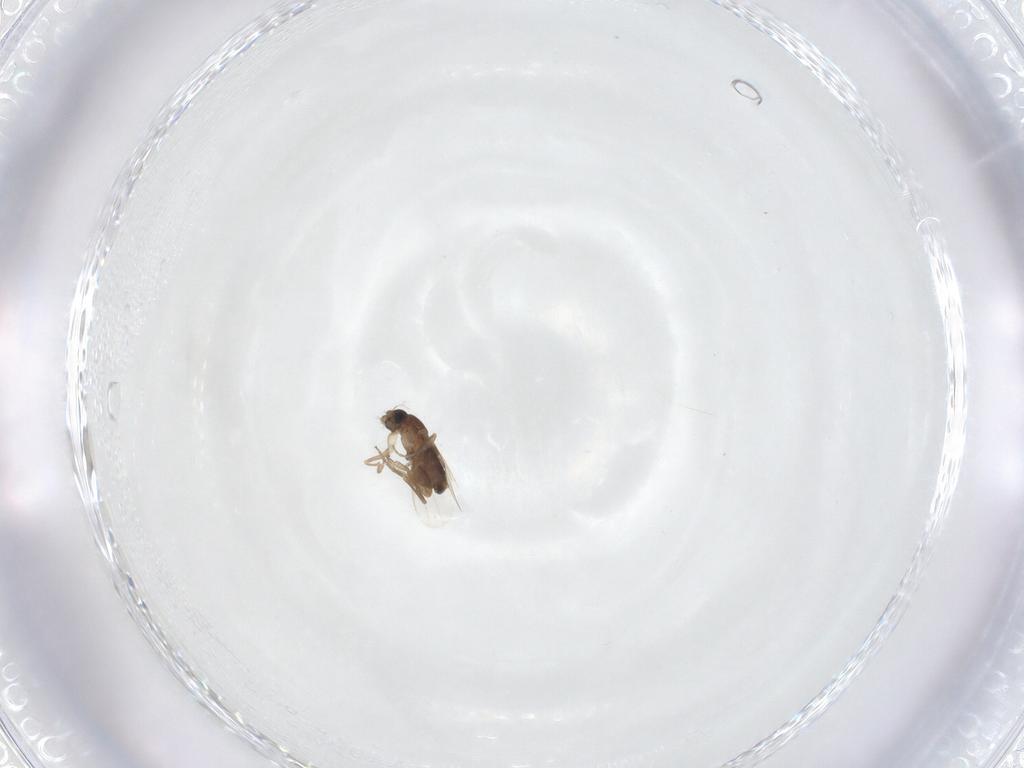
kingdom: Animalia
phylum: Arthropoda
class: Insecta
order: Diptera
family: Phoridae
